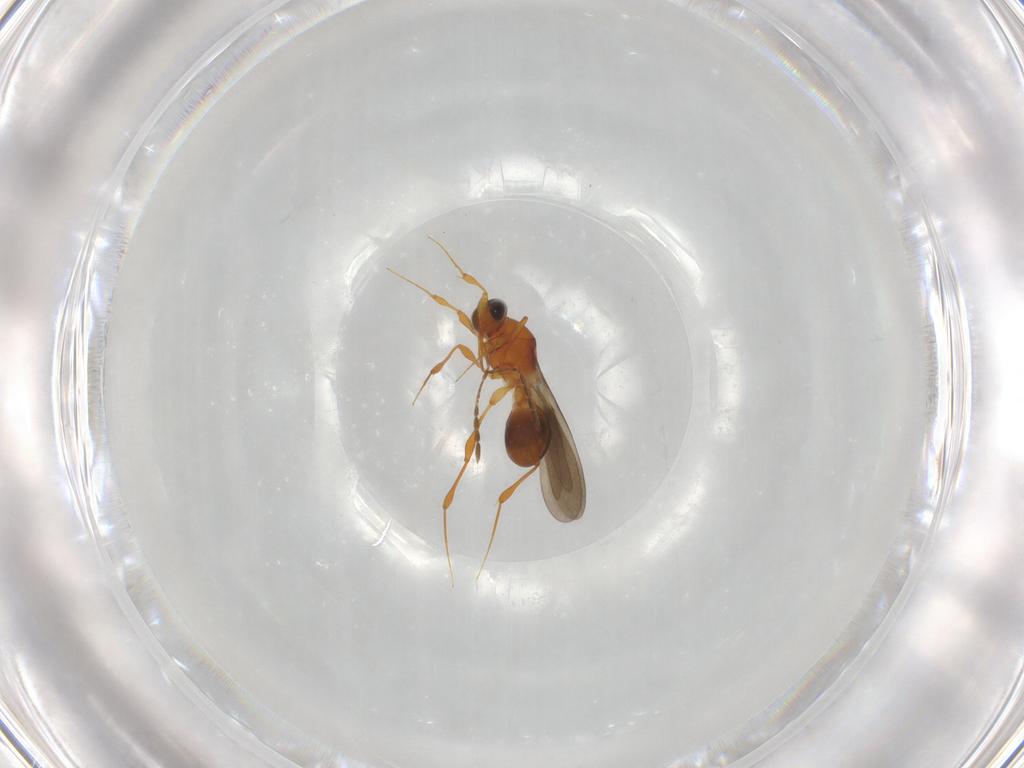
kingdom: Animalia
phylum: Arthropoda
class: Insecta
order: Hymenoptera
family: Platygastridae
